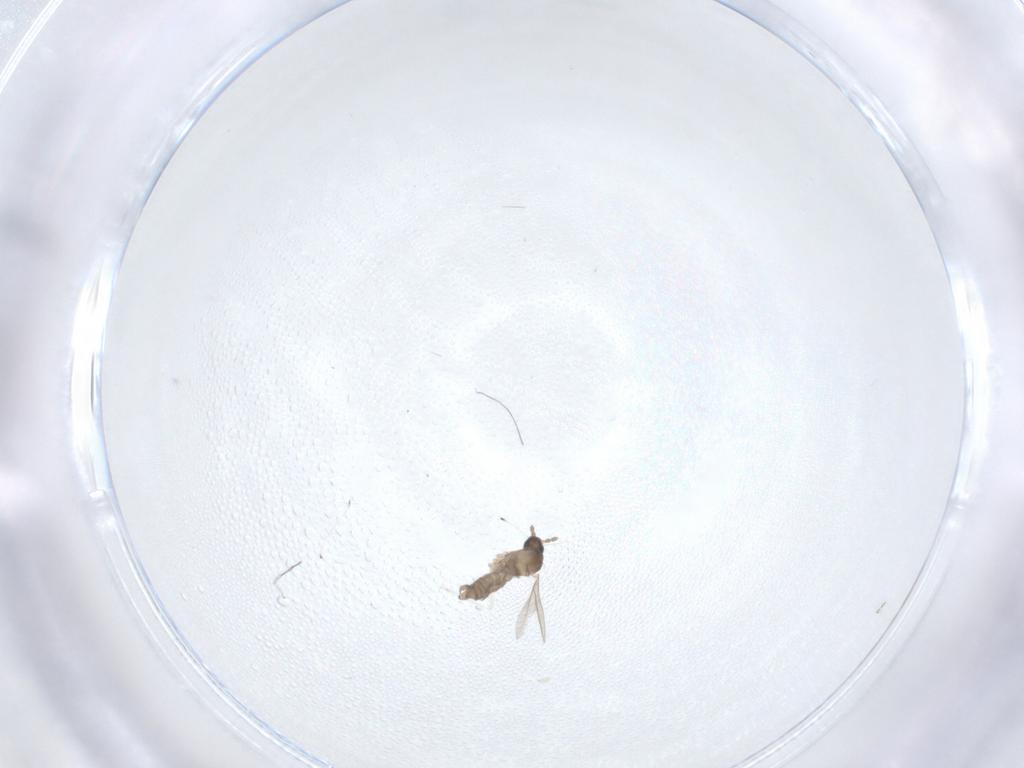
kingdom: Animalia
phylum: Arthropoda
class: Insecta
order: Diptera
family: Cecidomyiidae
